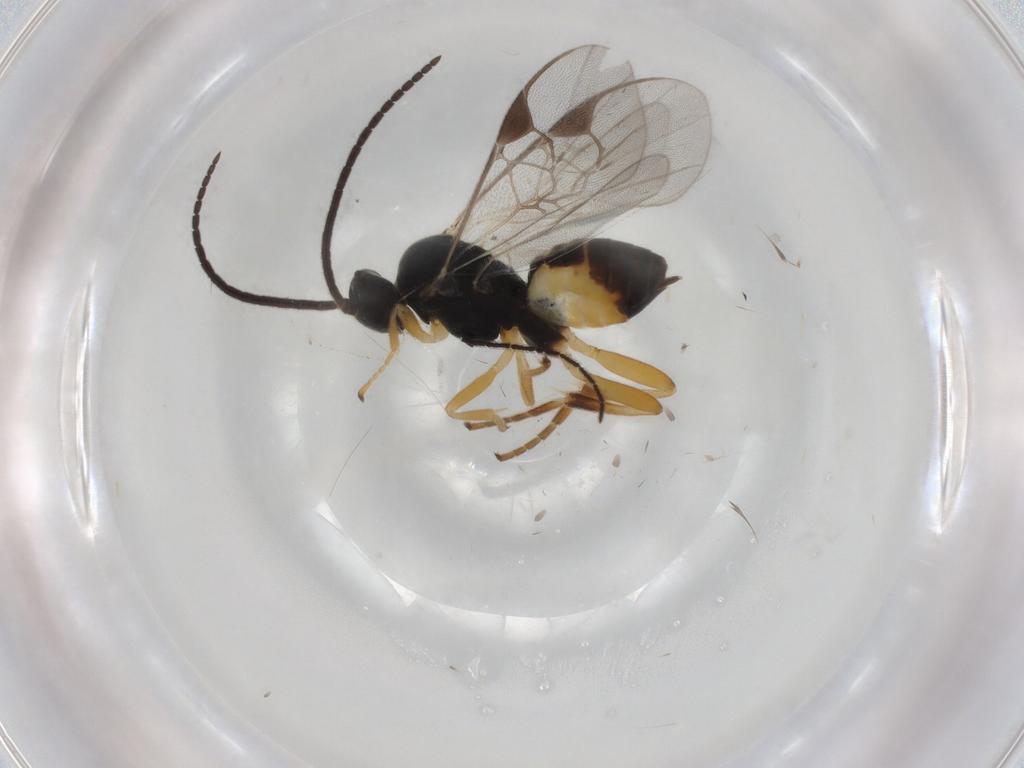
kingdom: Animalia
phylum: Arthropoda
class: Insecta
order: Hymenoptera
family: Braconidae
